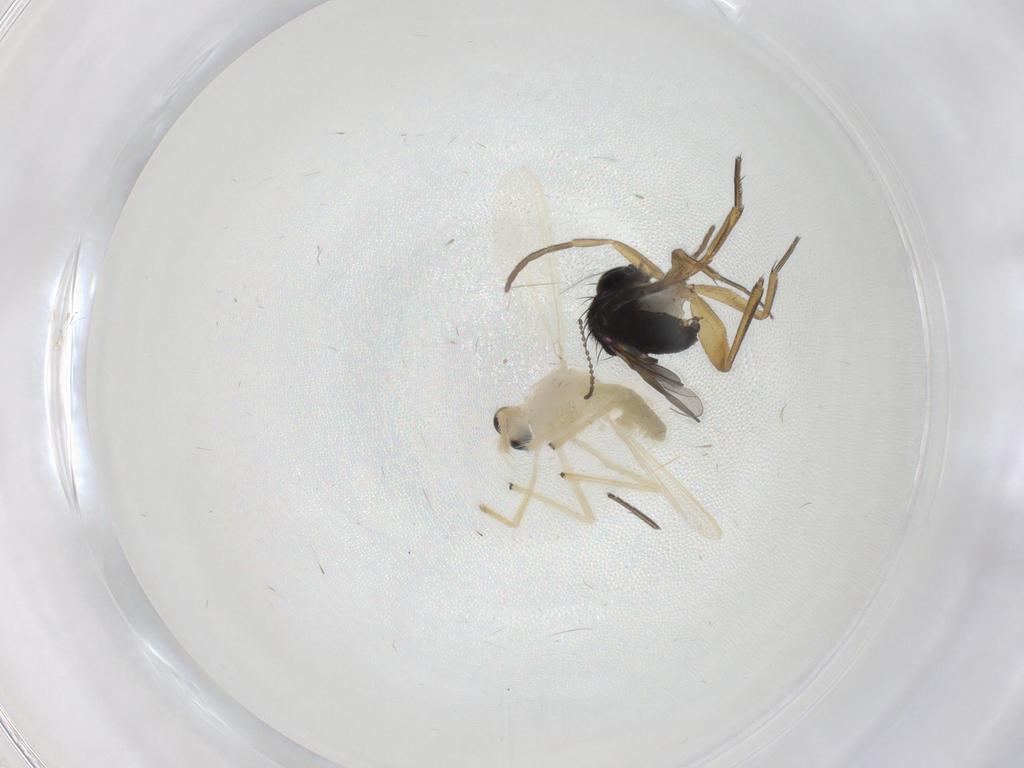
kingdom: Animalia
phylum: Arthropoda
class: Insecta
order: Diptera
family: Chironomidae
